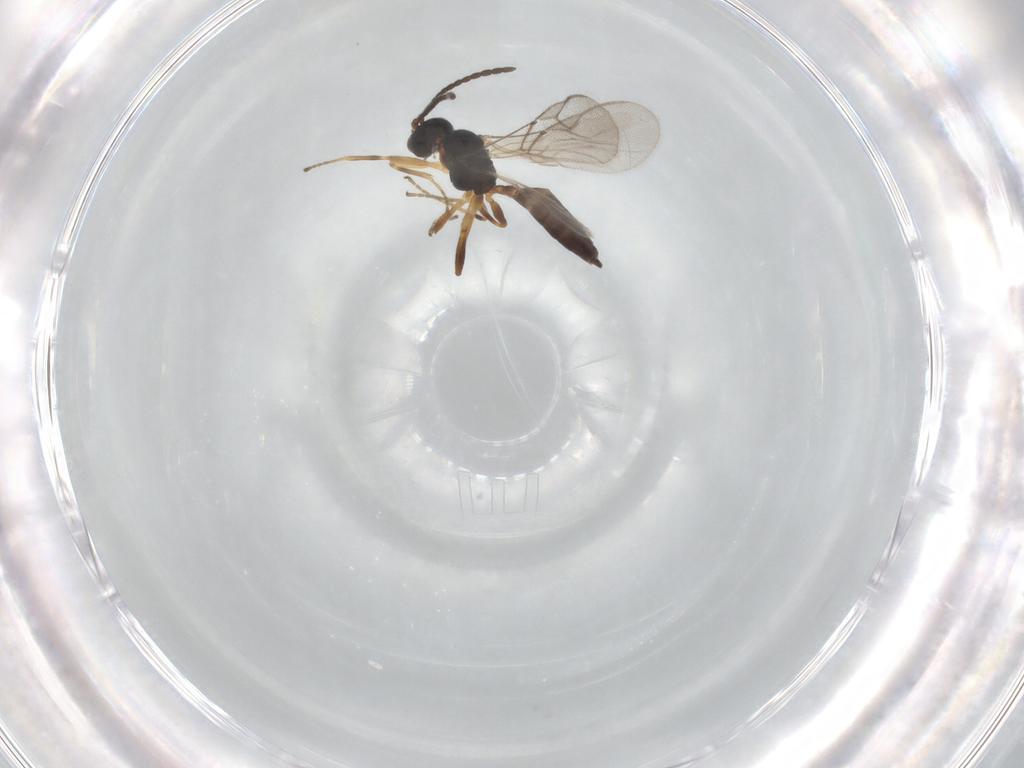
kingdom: Animalia
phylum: Arthropoda
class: Insecta
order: Hymenoptera
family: Braconidae
